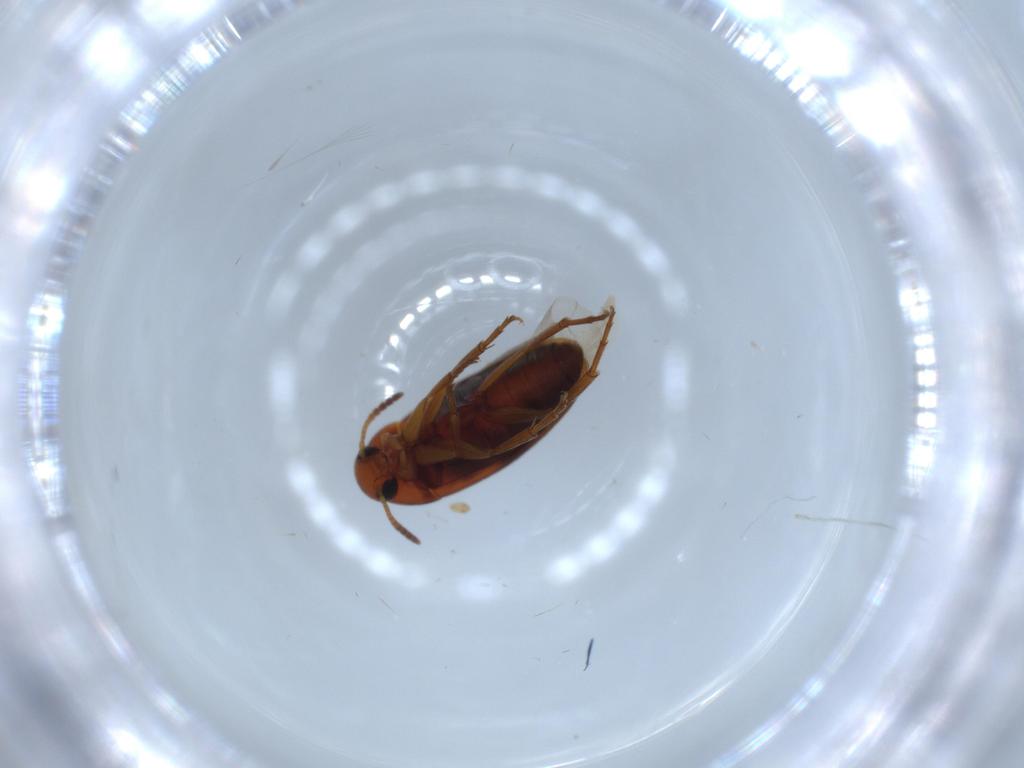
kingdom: Animalia
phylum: Arthropoda
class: Insecta
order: Coleoptera
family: Scraptiidae
